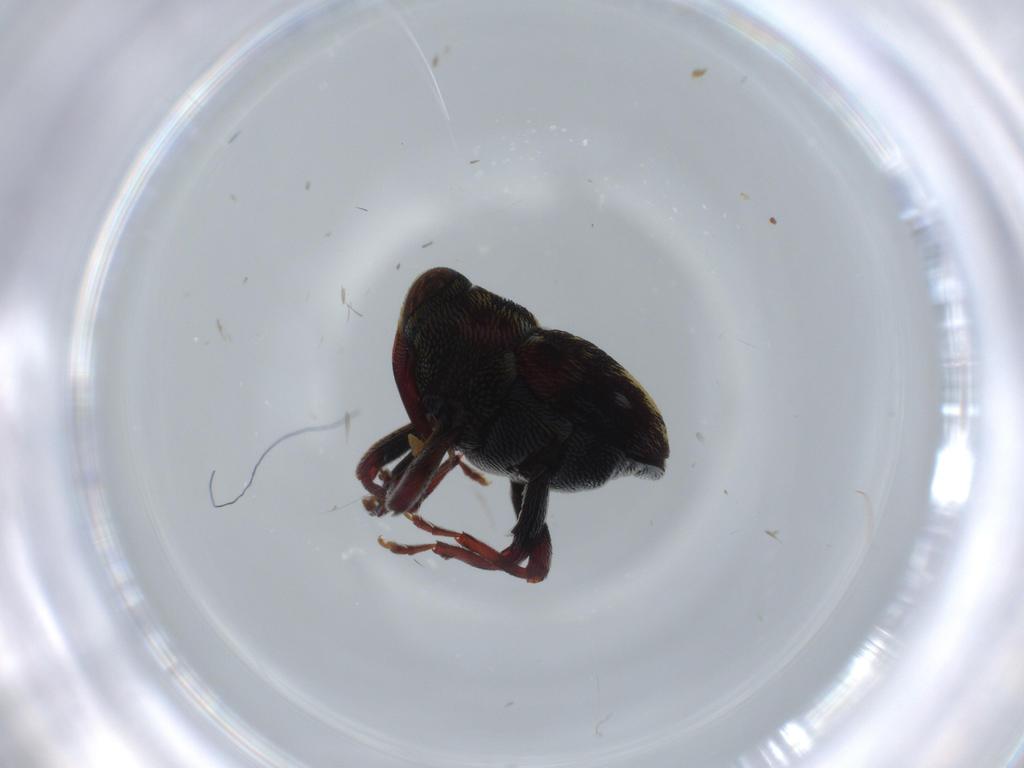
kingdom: Animalia
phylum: Arthropoda
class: Insecta
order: Coleoptera
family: Curculionidae
